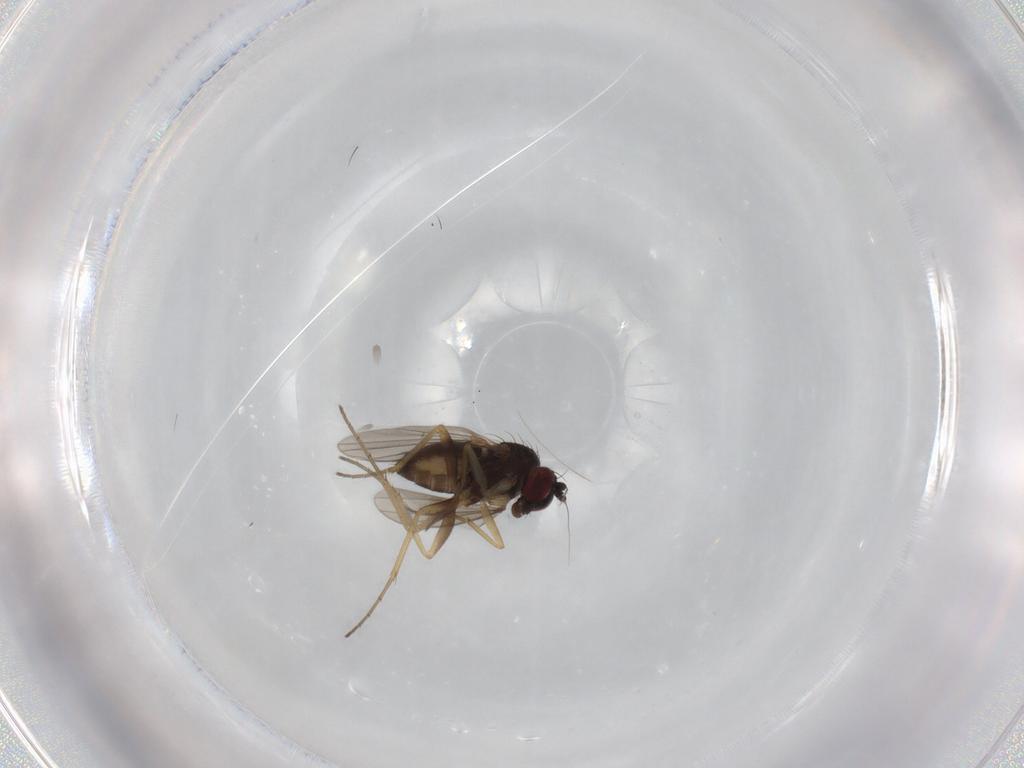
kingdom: Animalia
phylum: Arthropoda
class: Insecta
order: Diptera
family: Dolichopodidae
